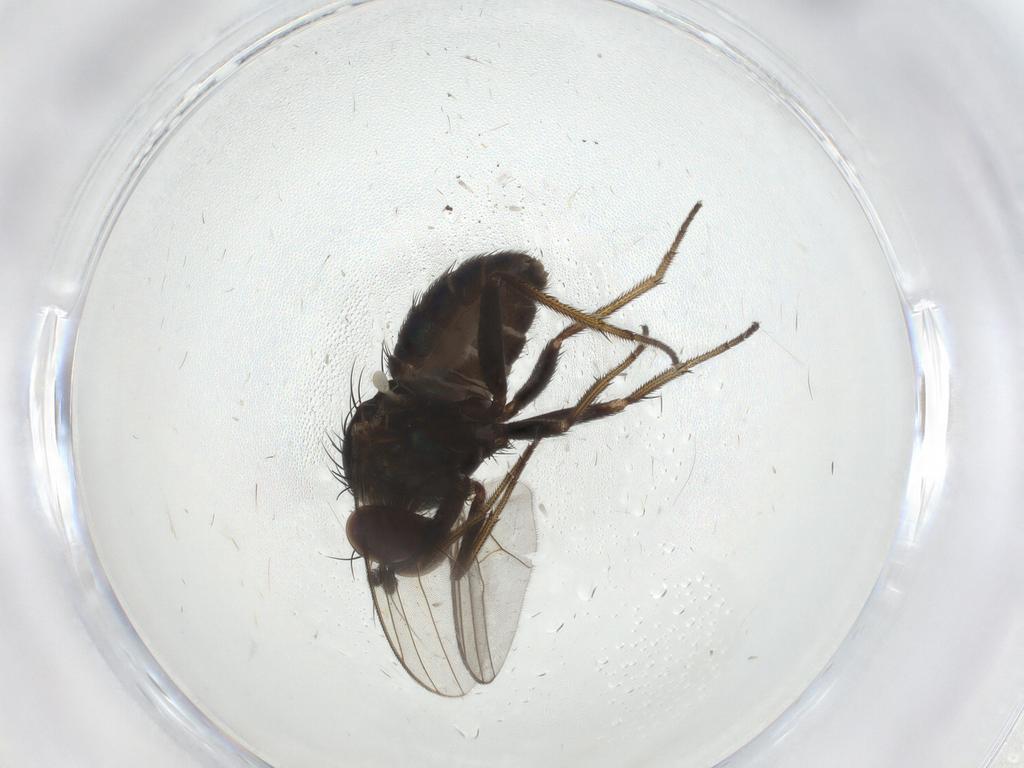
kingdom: Animalia
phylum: Arthropoda
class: Insecta
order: Diptera
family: Dolichopodidae
